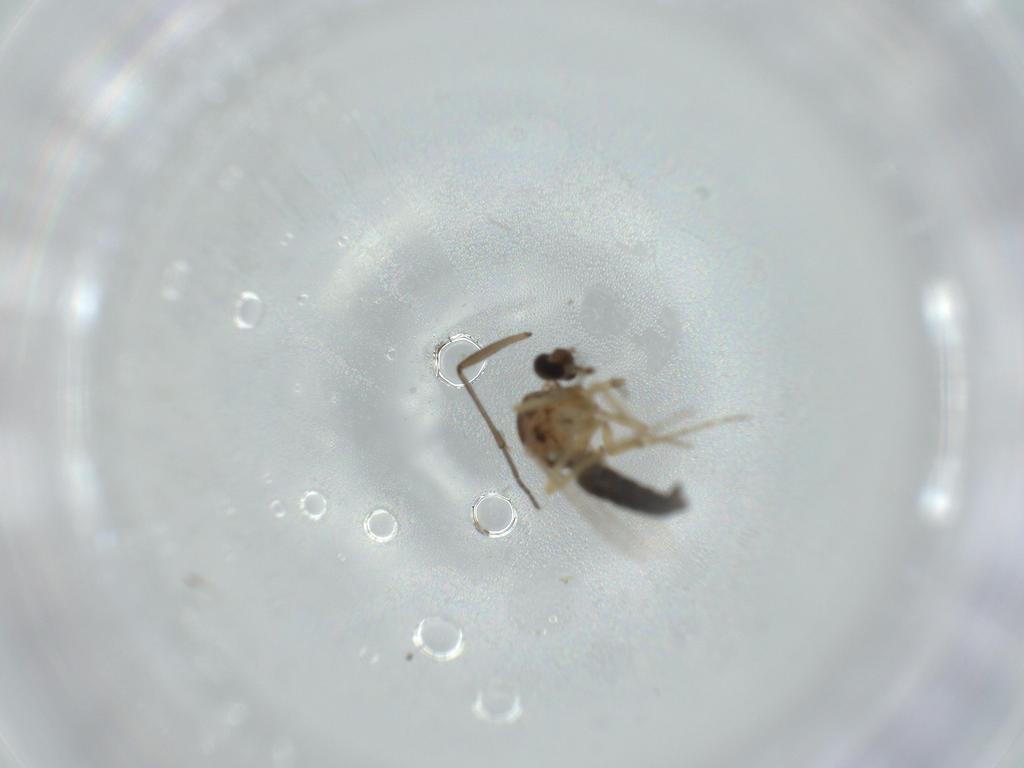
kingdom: Animalia
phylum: Arthropoda
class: Insecta
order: Diptera
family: Ceratopogonidae
